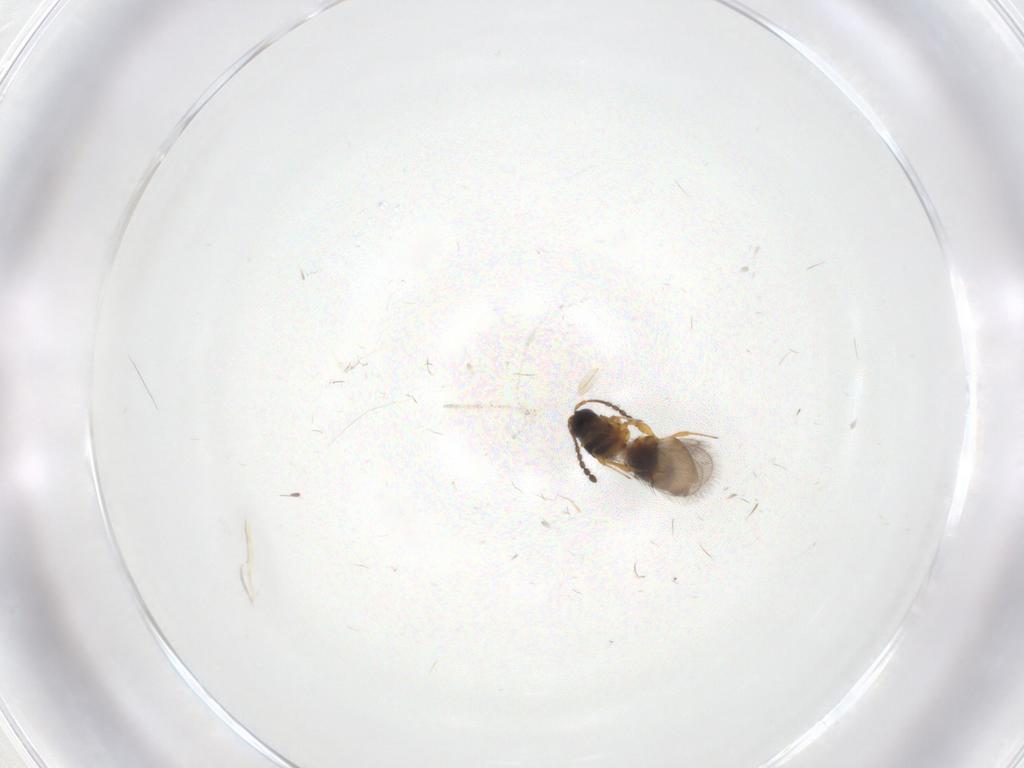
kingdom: Animalia
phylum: Arthropoda
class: Insecta
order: Hymenoptera
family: Figitidae
